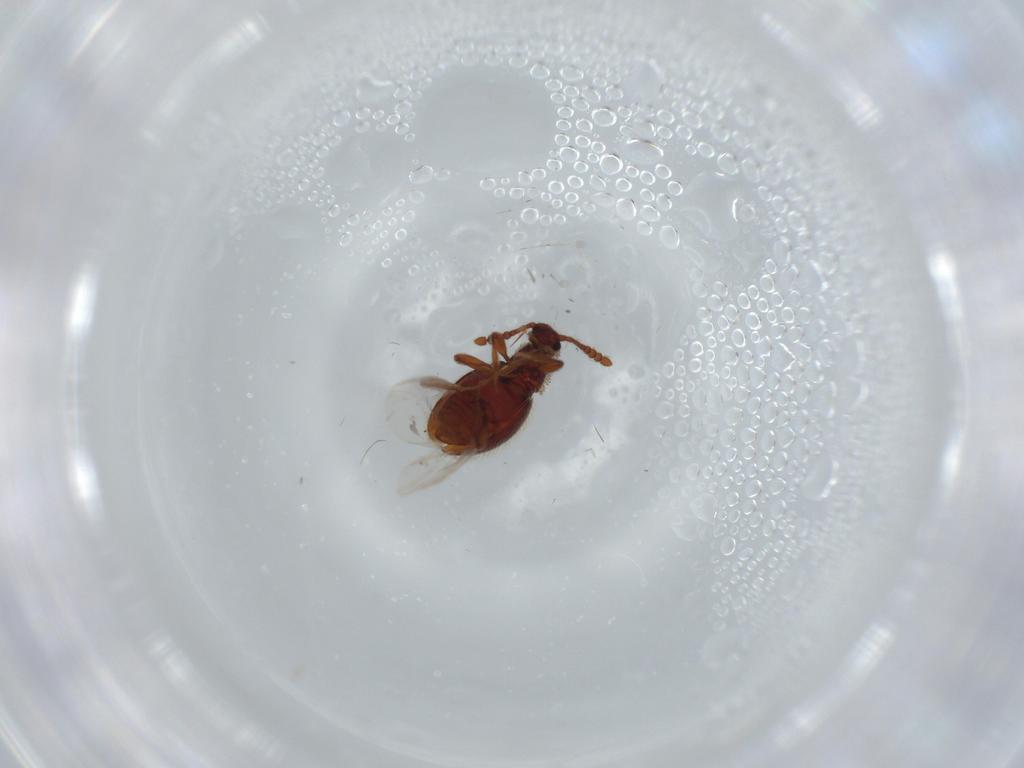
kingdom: Animalia
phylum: Arthropoda
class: Insecta
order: Coleoptera
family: Staphylinidae
